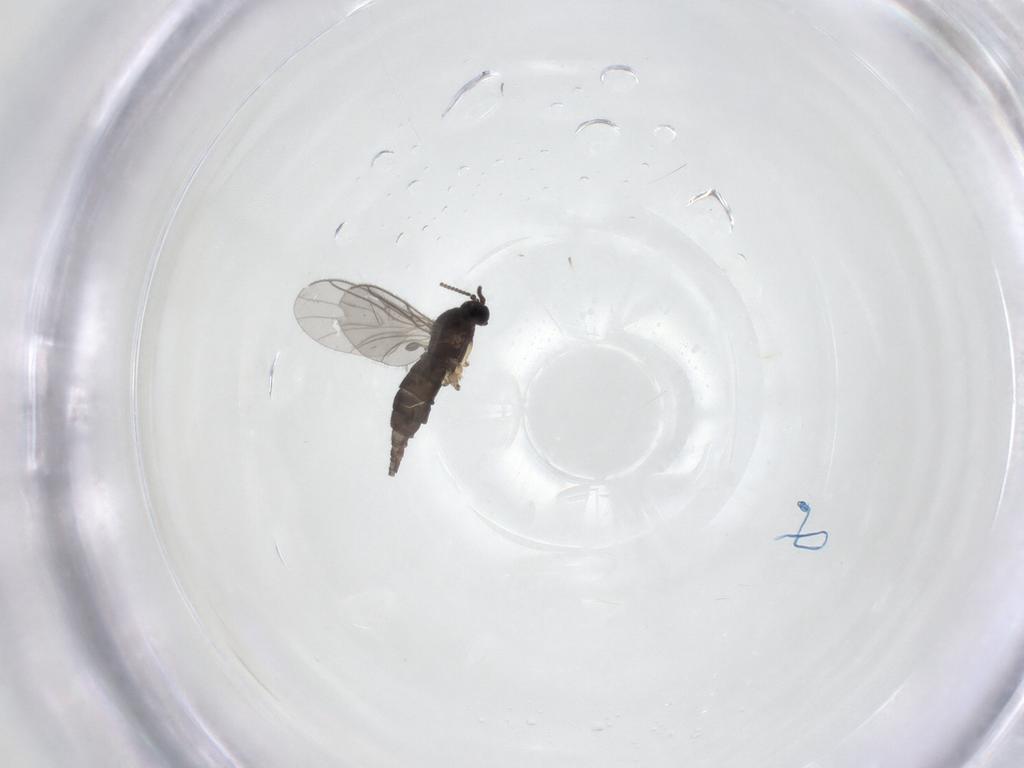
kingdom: Animalia
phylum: Arthropoda
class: Insecta
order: Diptera
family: Sciaridae
